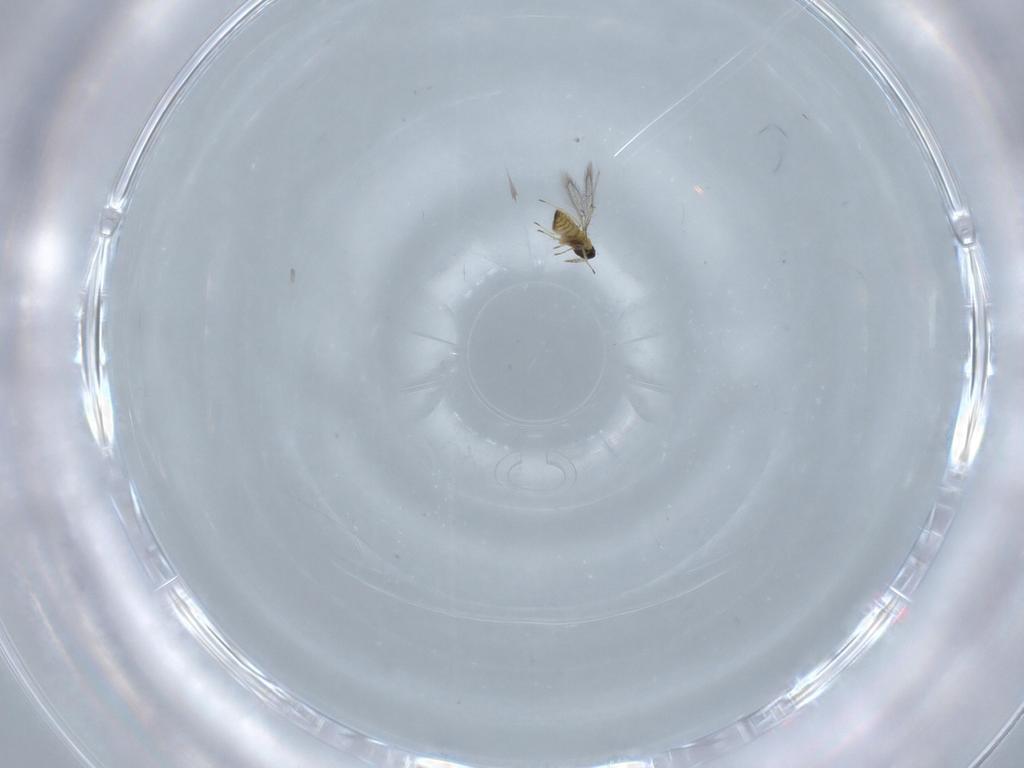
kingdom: Animalia
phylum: Arthropoda
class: Insecta
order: Hymenoptera
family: Trichogrammatidae
